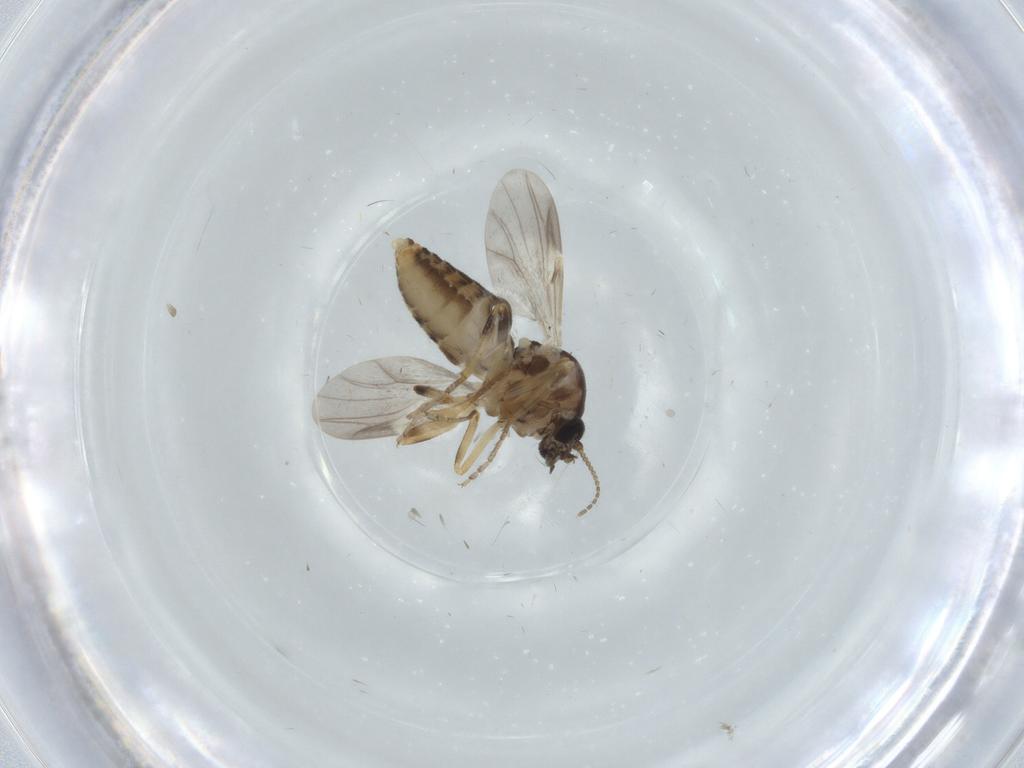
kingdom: Animalia
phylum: Arthropoda
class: Insecta
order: Diptera
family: Ceratopogonidae
